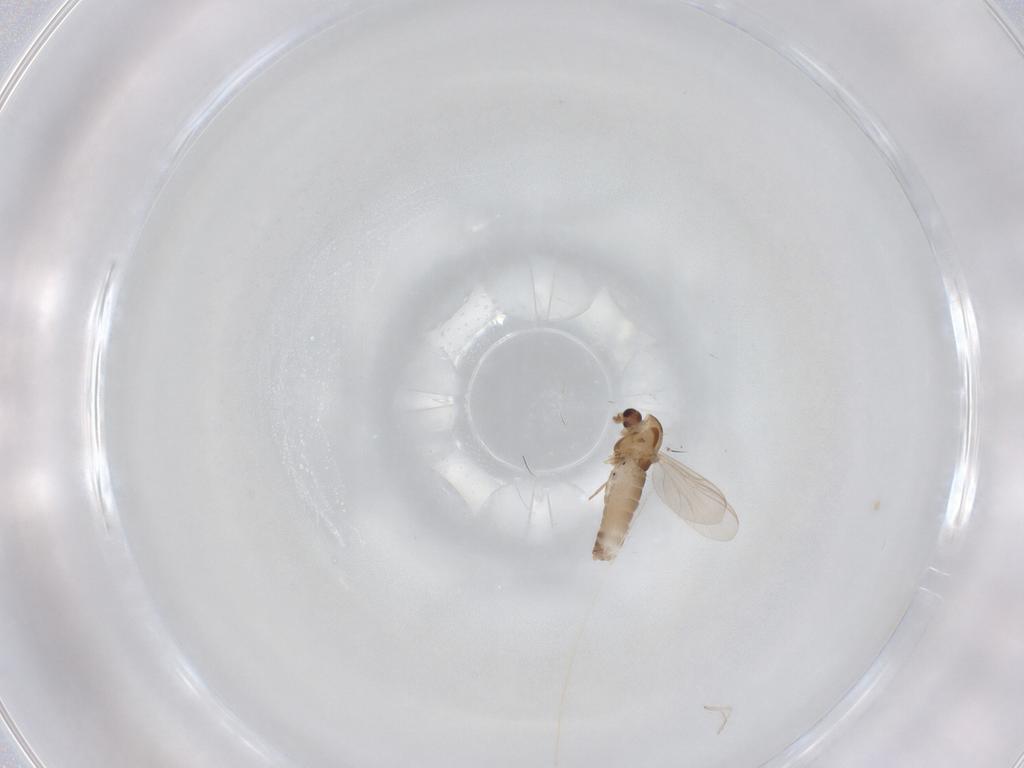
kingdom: Animalia
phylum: Arthropoda
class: Insecta
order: Diptera
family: Chironomidae
